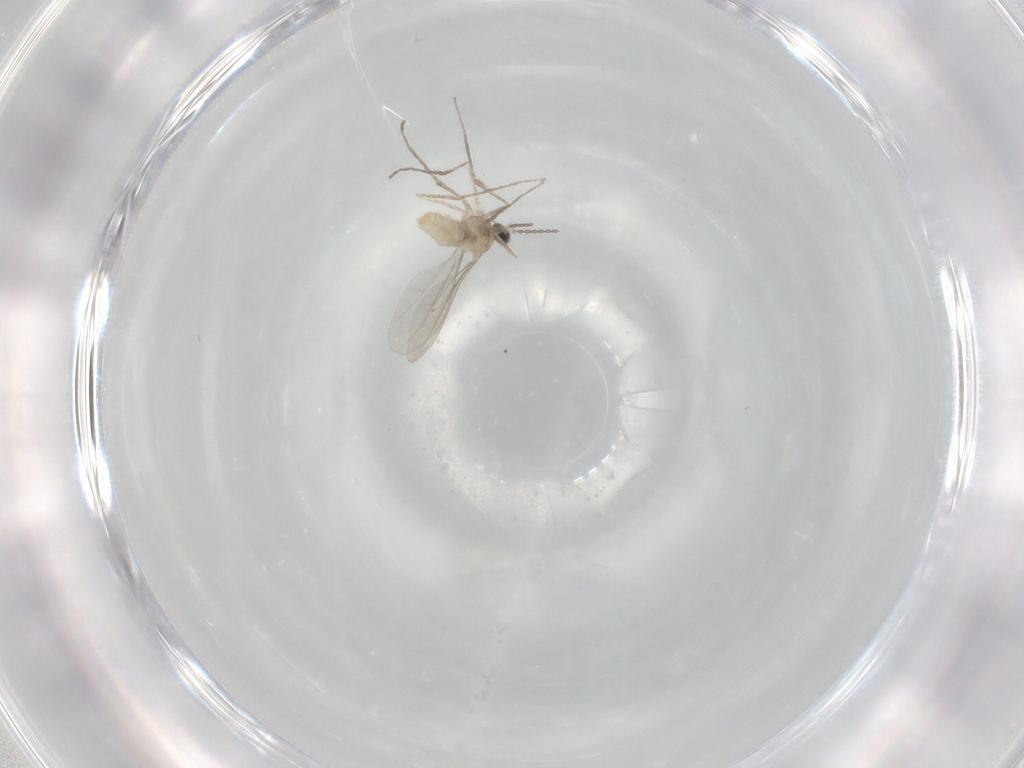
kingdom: Animalia
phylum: Arthropoda
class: Insecta
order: Diptera
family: Cecidomyiidae
